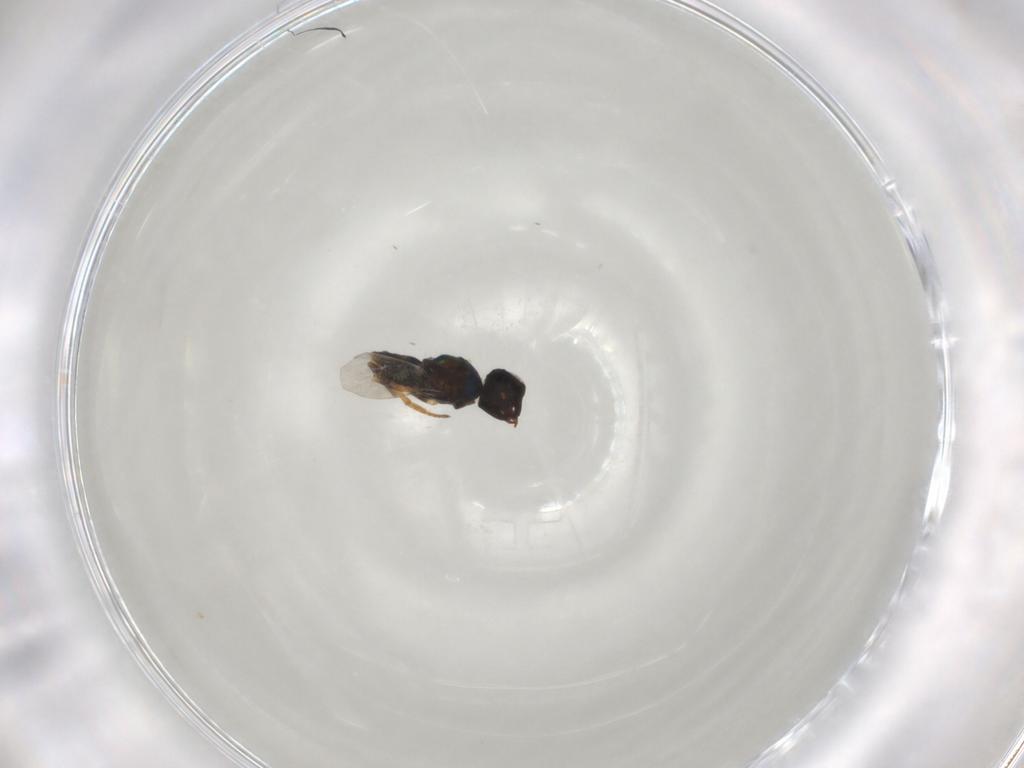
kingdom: Animalia
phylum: Arthropoda
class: Insecta
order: Hymenoptera
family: Encyrtidae
